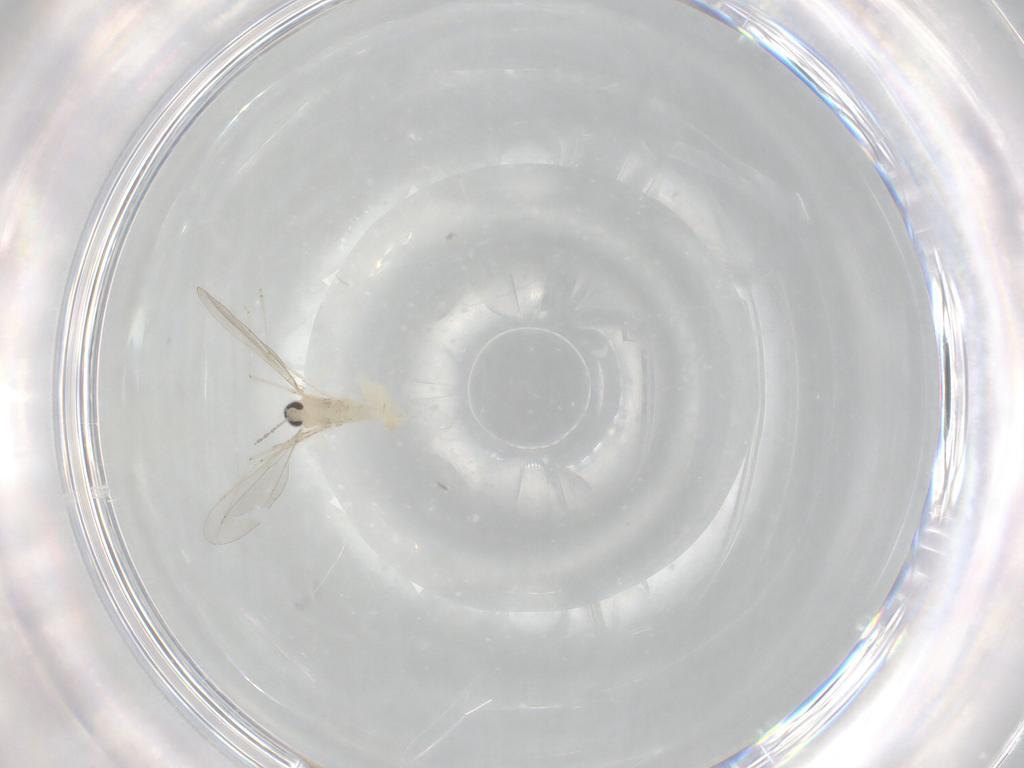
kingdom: Animalia
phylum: Arthropoda
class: Insecta
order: Diptera
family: Cecidomyiidae
